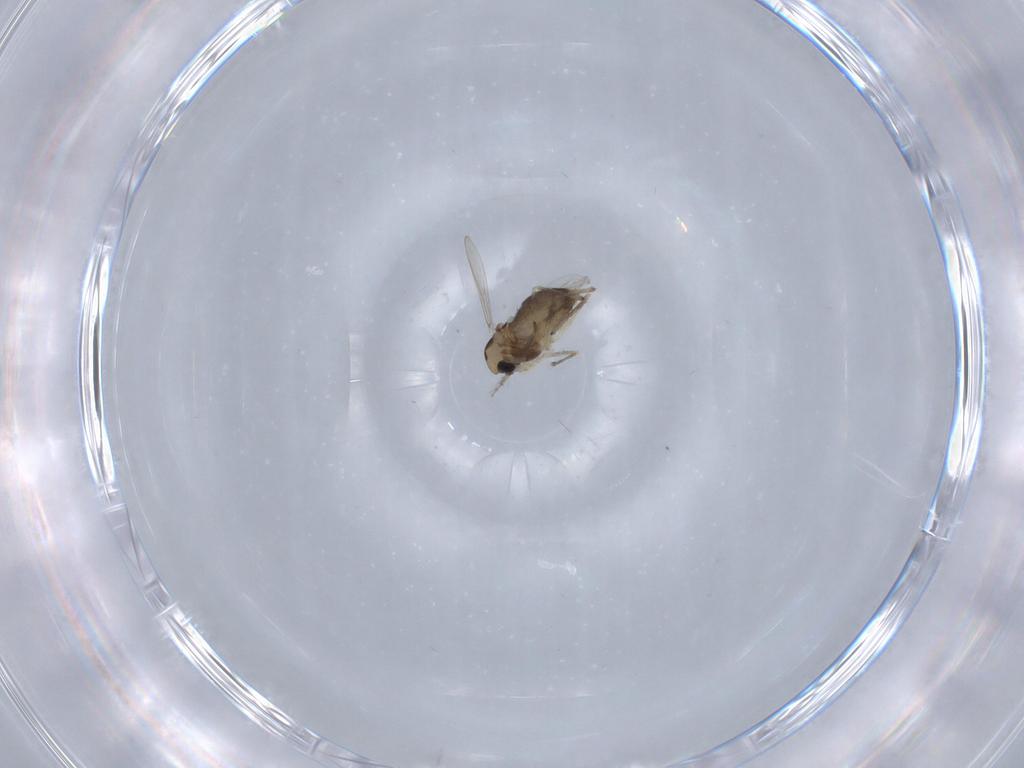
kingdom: Animalia
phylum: Arthropoda
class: Insecta
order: Diptera
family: Chironomidae
